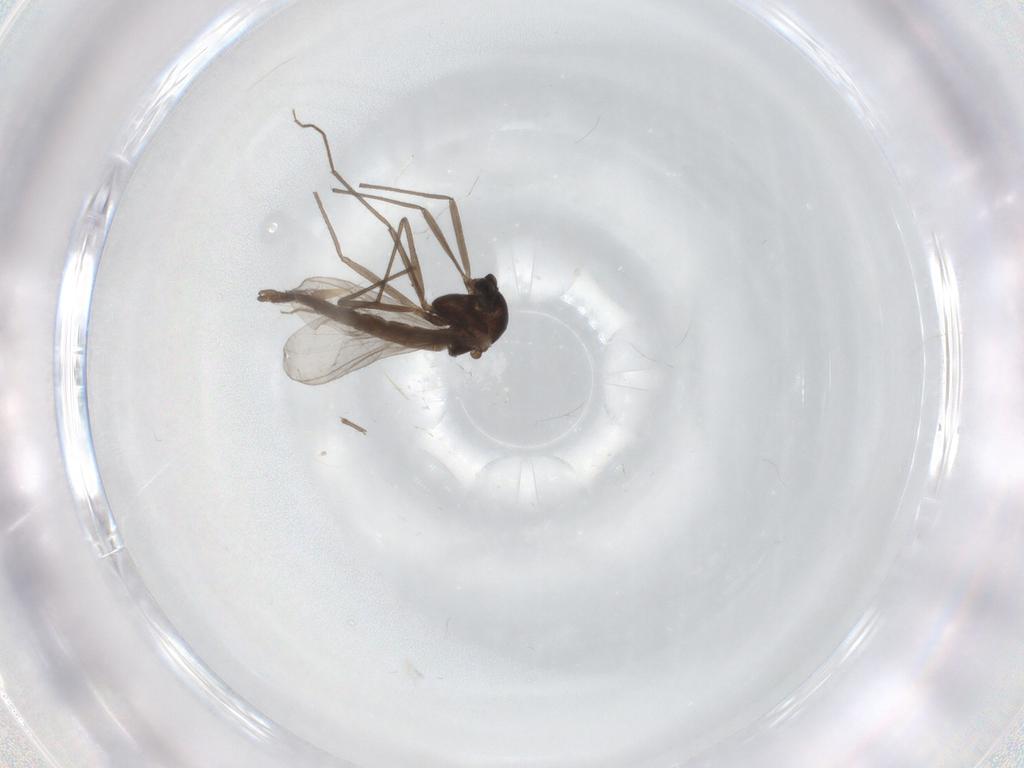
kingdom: Animalia
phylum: Arthropoda
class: Insecta
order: Diptera
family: Chironomidae
